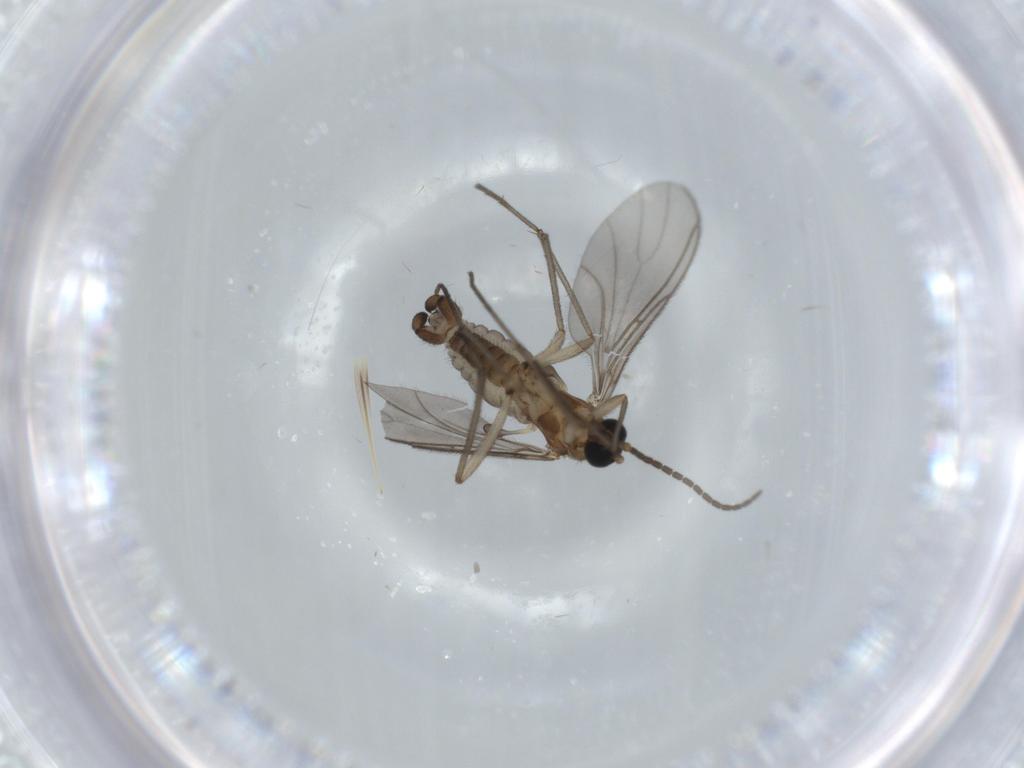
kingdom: Animalia
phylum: Arthropoda
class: Insecta
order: Diptera
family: Sciaridae
